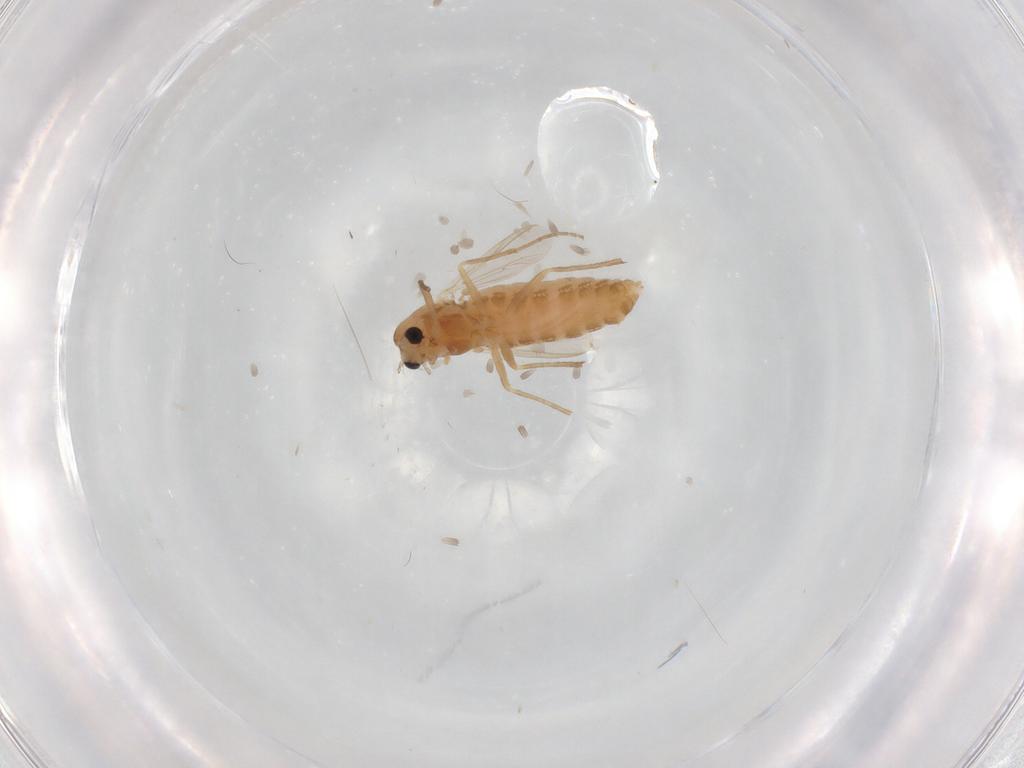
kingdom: Animalia
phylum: Arthropoda
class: Insecta
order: Diptera
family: Chironomidae
